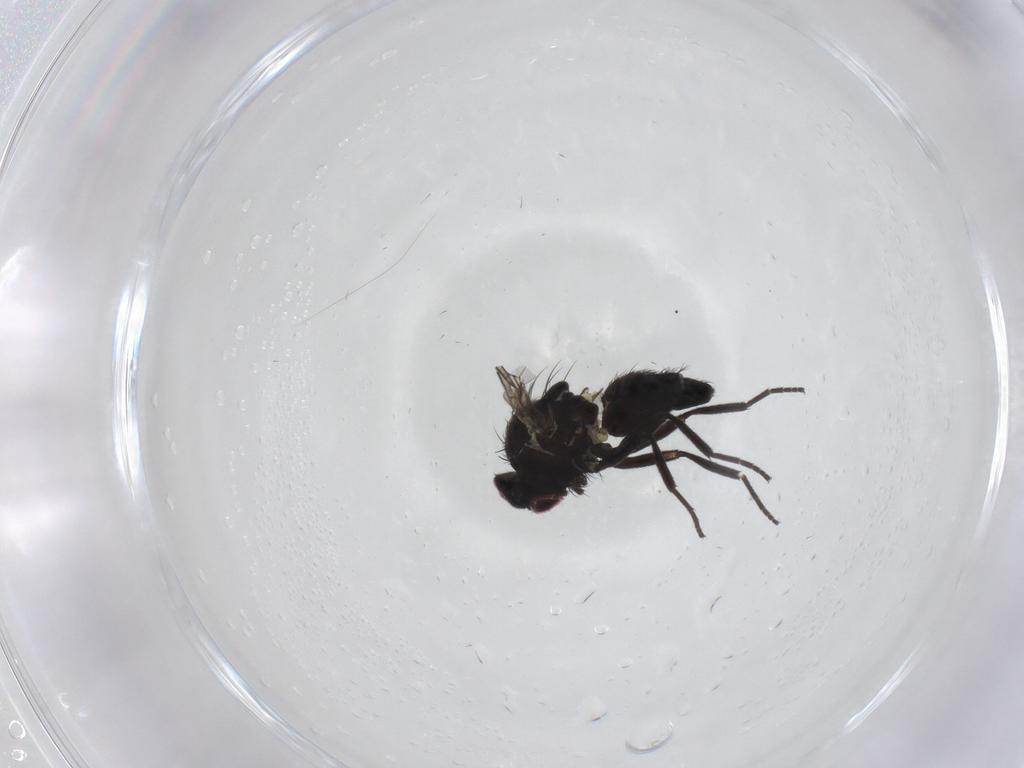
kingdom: Animalia
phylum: Arthropoda
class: Insecta
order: Diptera
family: Agromyzidae
